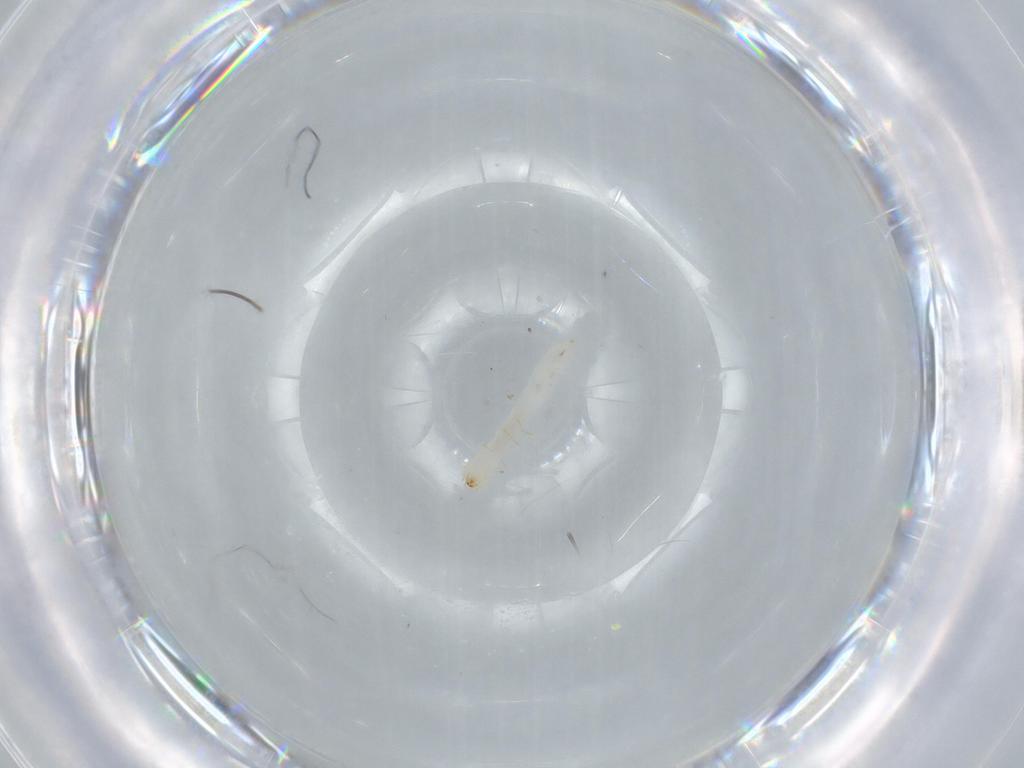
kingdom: Animalia
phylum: Arthropoda
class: Insecta
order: Coleoptera
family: Micromalthidae
